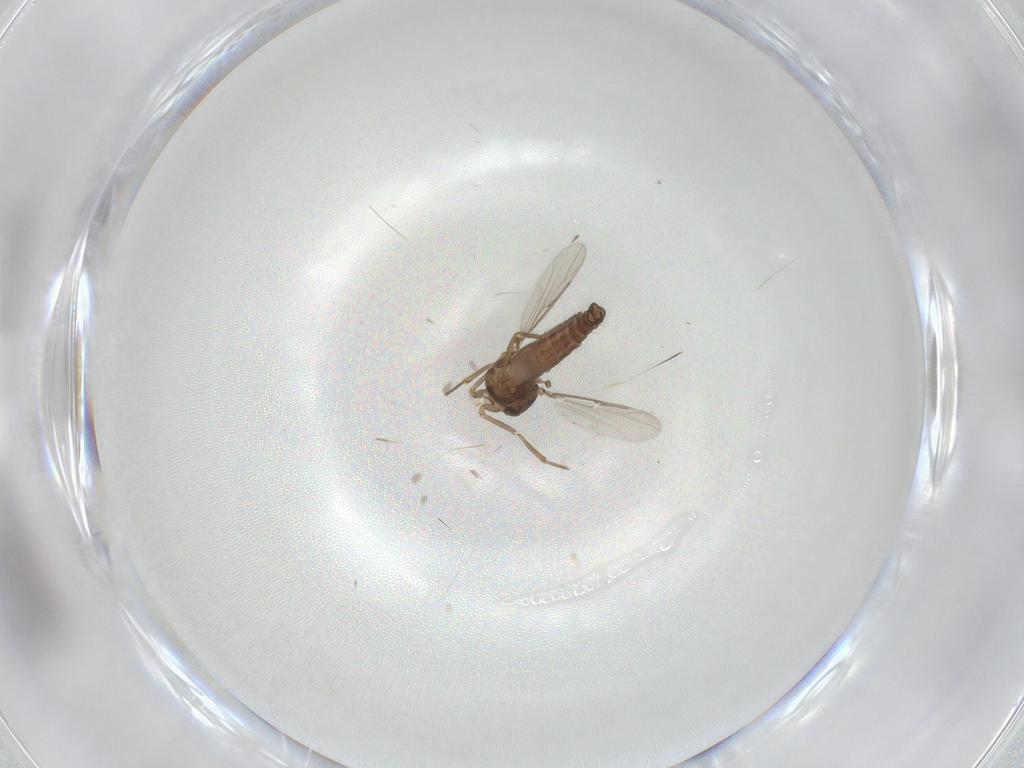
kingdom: Animalia
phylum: Arthropoda
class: Insecta
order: Diptera
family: Ceratopogonidae
